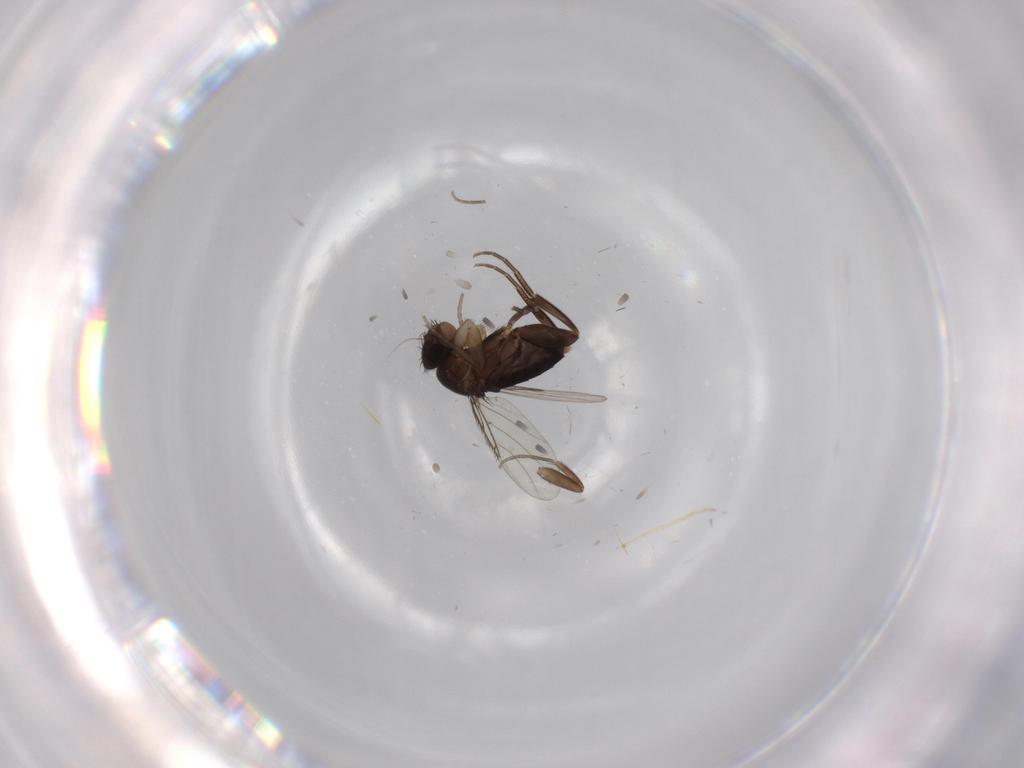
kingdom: Animalia
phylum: Arthropoda
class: Insecta
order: Diptera
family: Phoridae
